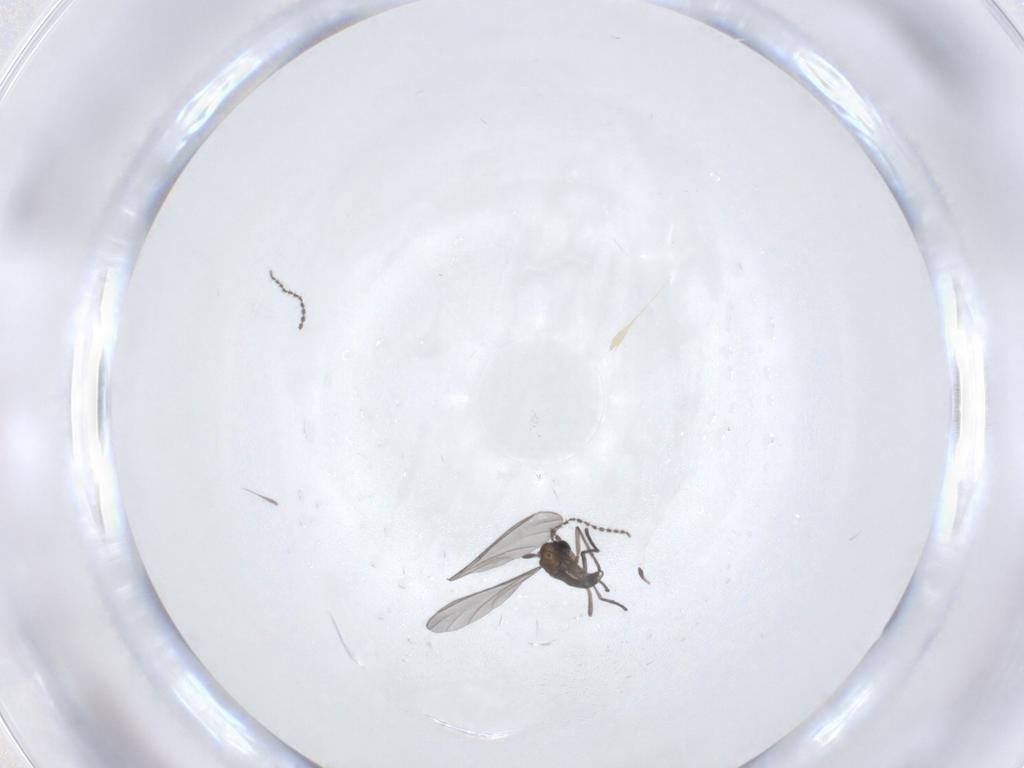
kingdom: Animalia
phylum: Arthropoda
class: Insecta
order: Diptera
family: Drosophilidae
